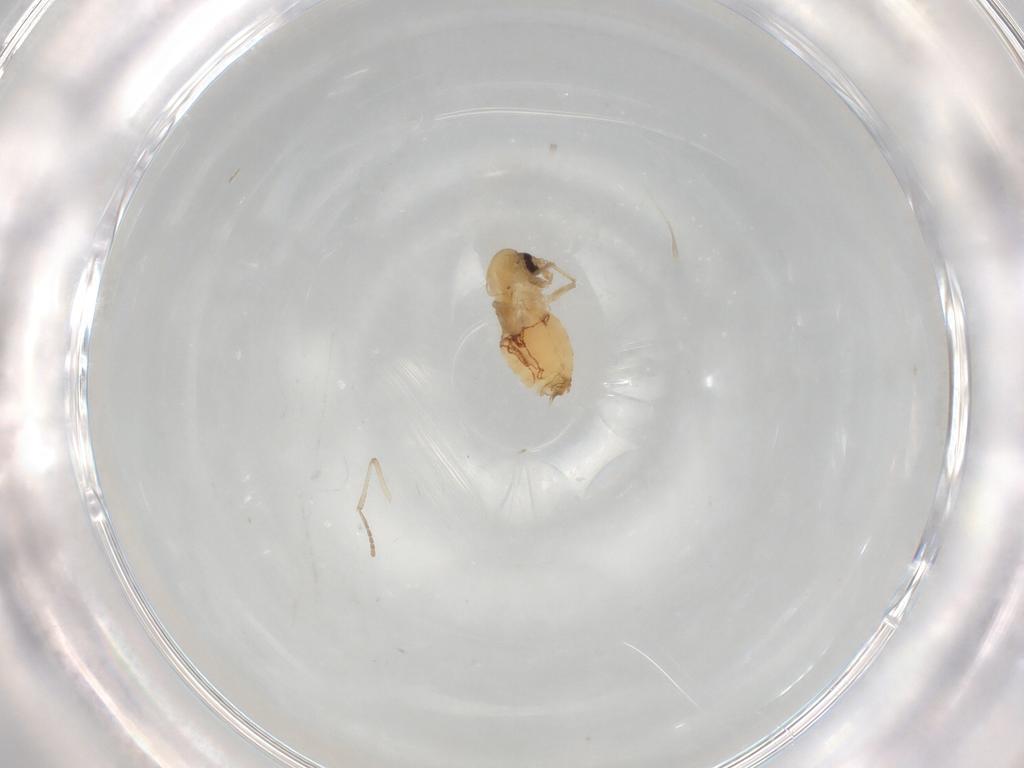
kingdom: Animalia
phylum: Arthropoda
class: Insecta
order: Diptera
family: Psychodidae
